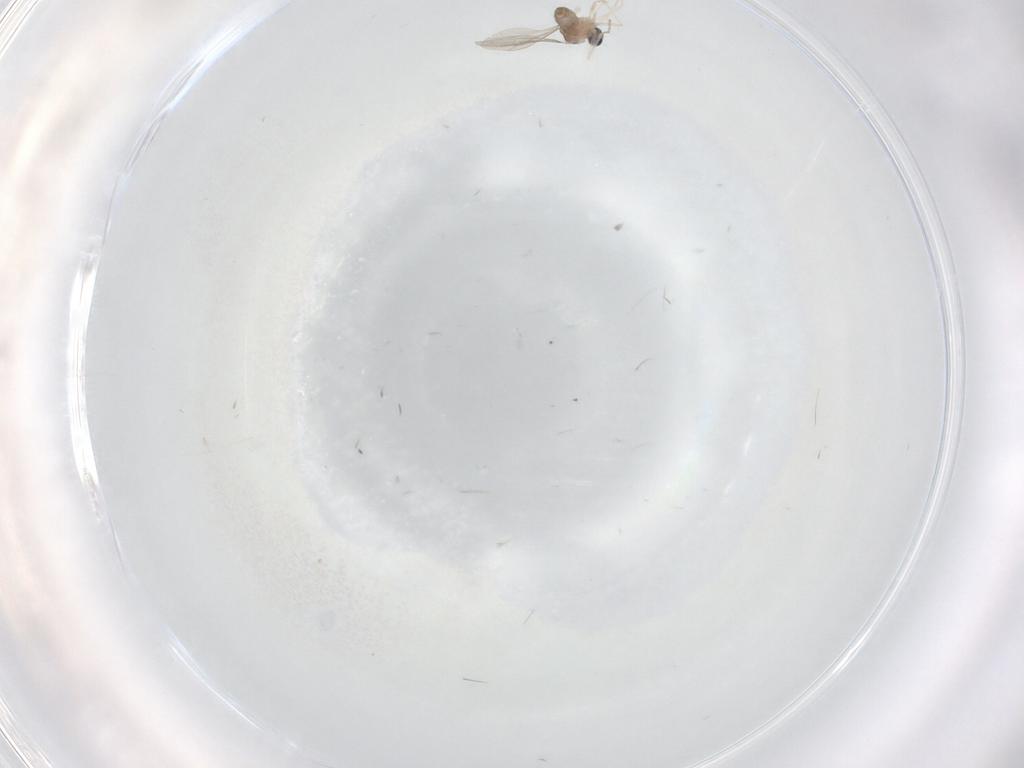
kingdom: Animalia
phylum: Arthropoda
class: Insecta
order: Diptera
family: Cecidomyiidae
